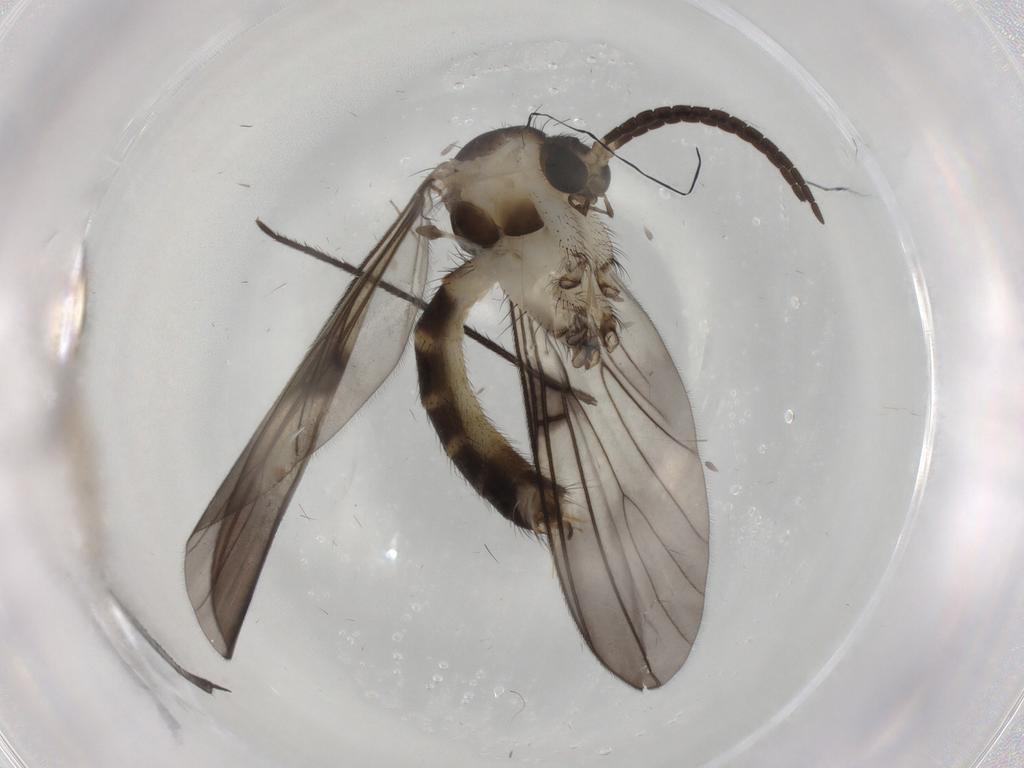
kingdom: Animalia
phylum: Arthropoda
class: Insecta
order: Diptera
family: Mycetophilidae
